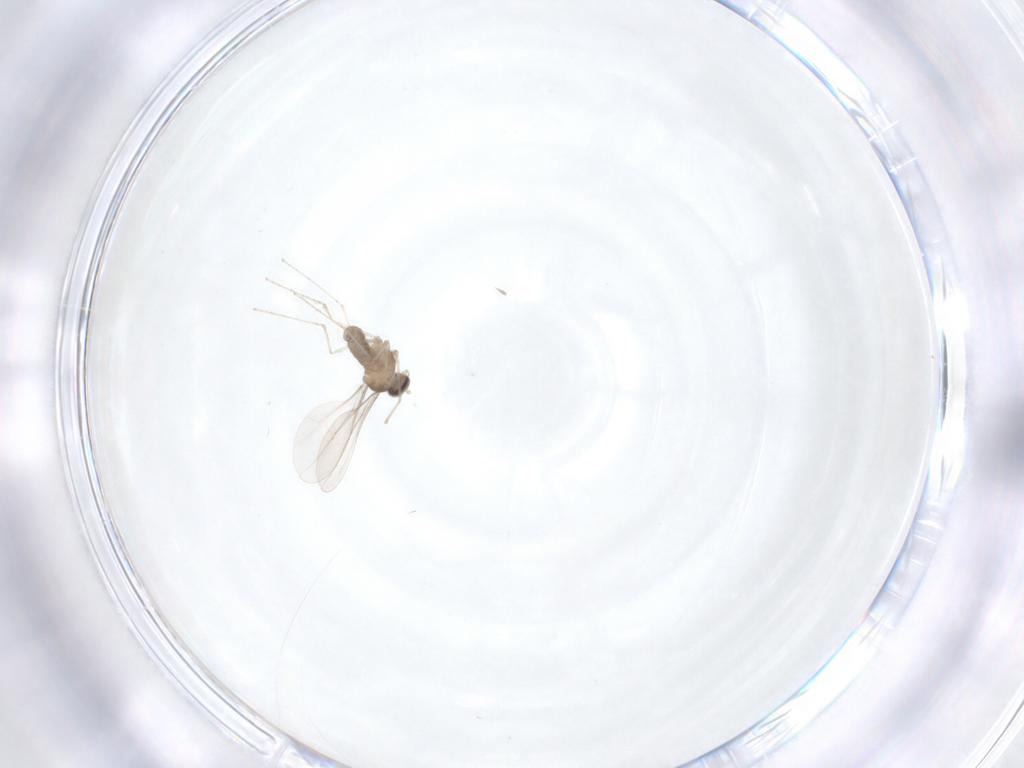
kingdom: Animalia
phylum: Arthropoda
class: Insecta
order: Diptera
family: Cecidomyiidae
